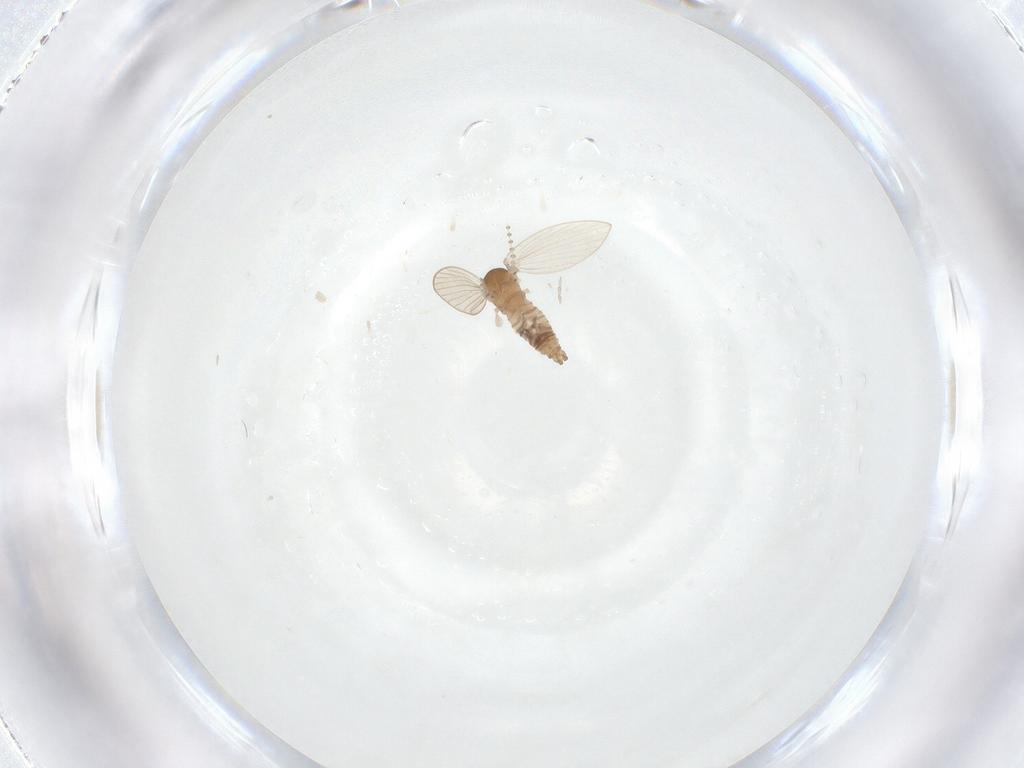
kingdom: Animalia
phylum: Arthropoda
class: Insecta
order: Diptera
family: Psychodidae
